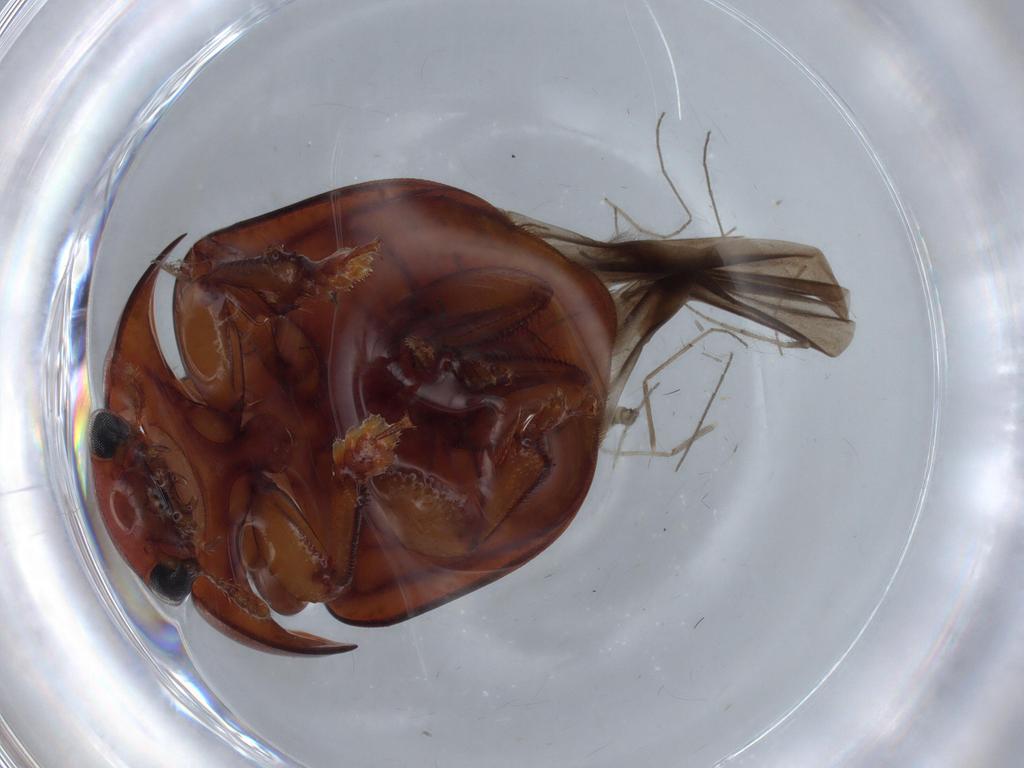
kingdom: Animalia
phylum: Arthropoda
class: Insecta
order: Coleoptera
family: Nitidulidae
